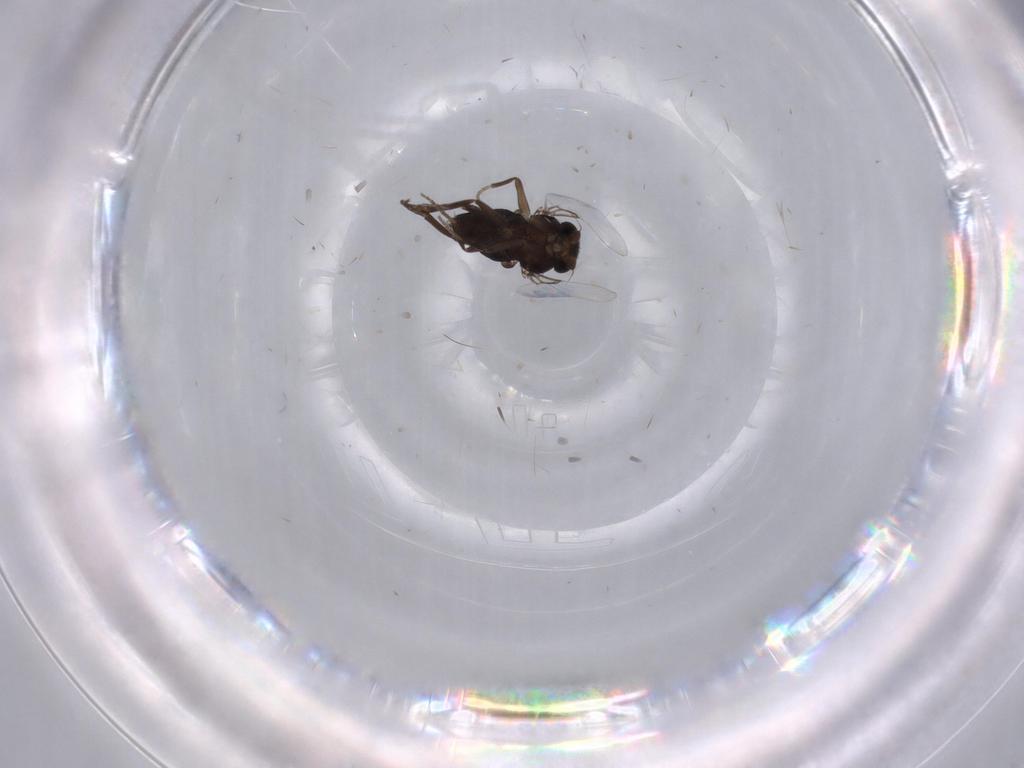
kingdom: Animalia
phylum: Arthropoda
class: Insecta
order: Diptera
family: Phoridae
